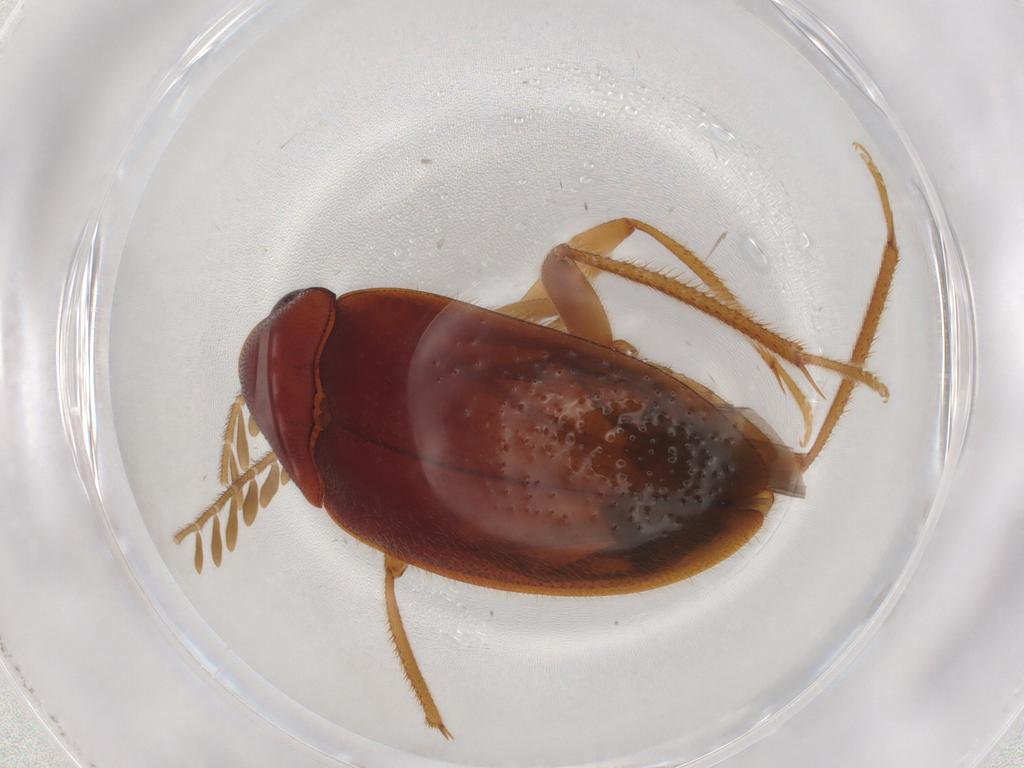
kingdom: Animalia
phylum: Arthropoda
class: Insecta
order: Coleoptera
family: Ptilodactylidae
